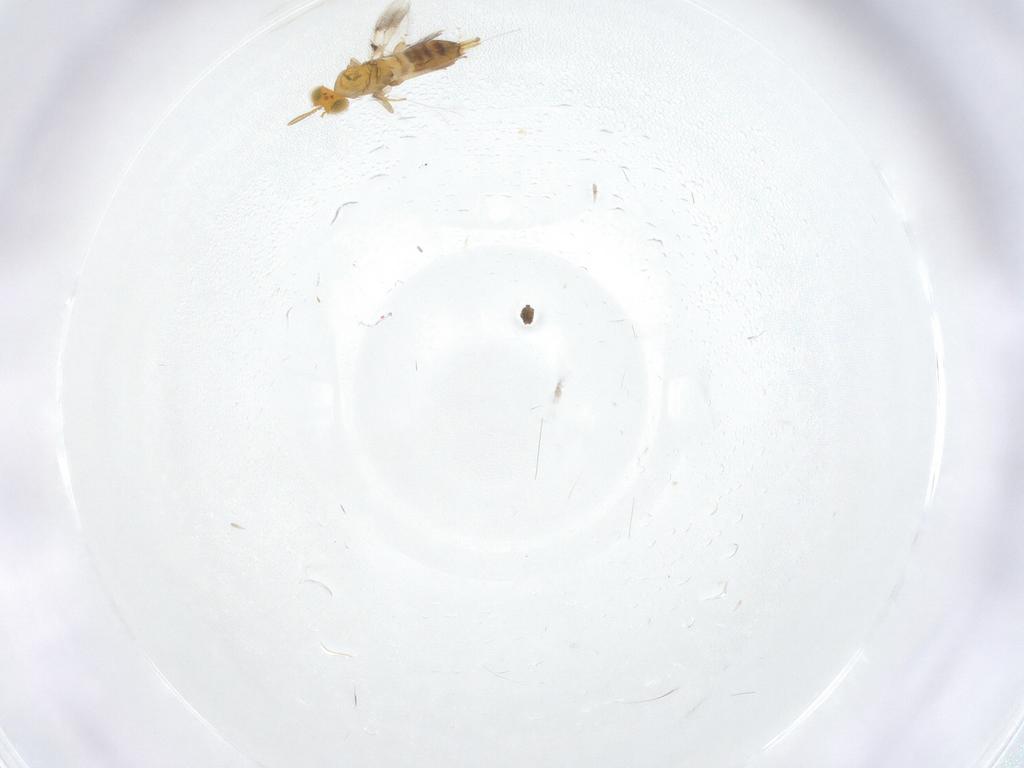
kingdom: Animalia
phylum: Arthropoda
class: Insecta
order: Hymenoptera
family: Aphelinidae
